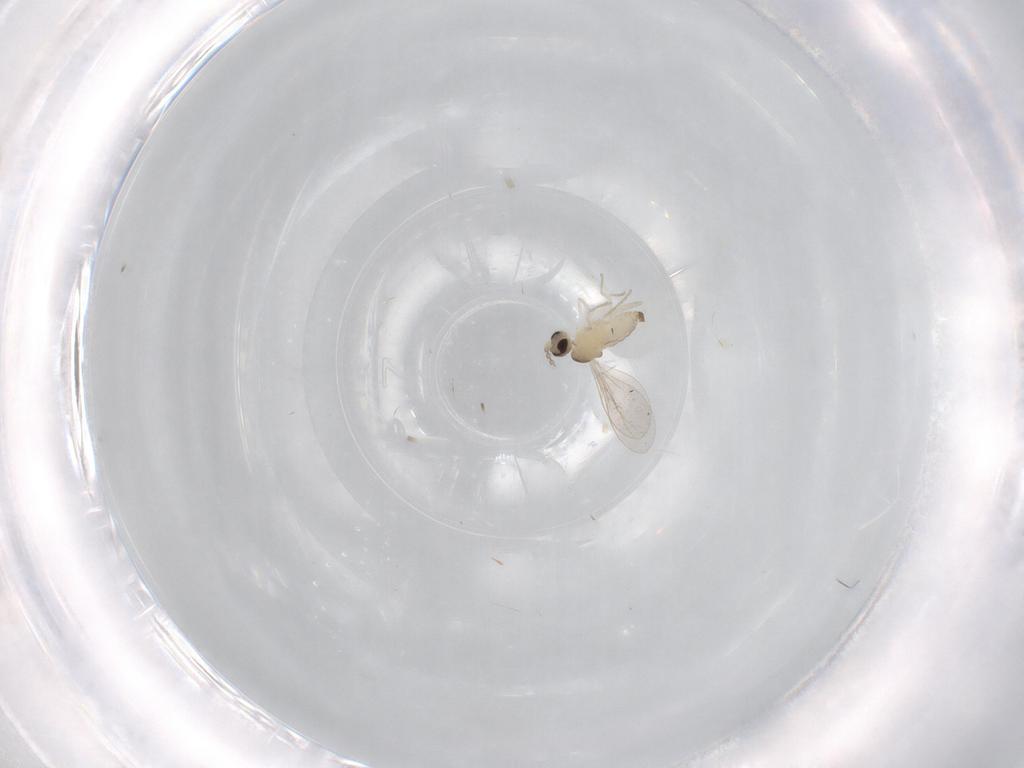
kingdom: Animalia
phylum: Arthropoda
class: Insecta
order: Diptera
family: Cecidomyiidae
